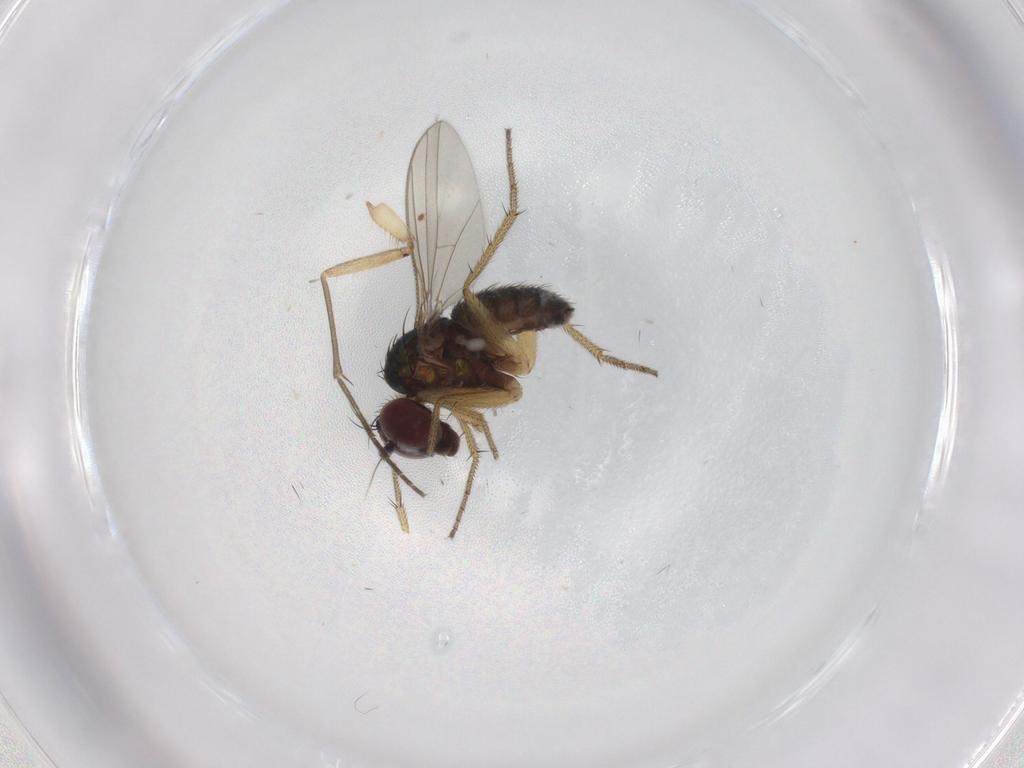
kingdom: Animalia
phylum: Arthropoda
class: Insecta
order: Diptera
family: Dolichopodidae
